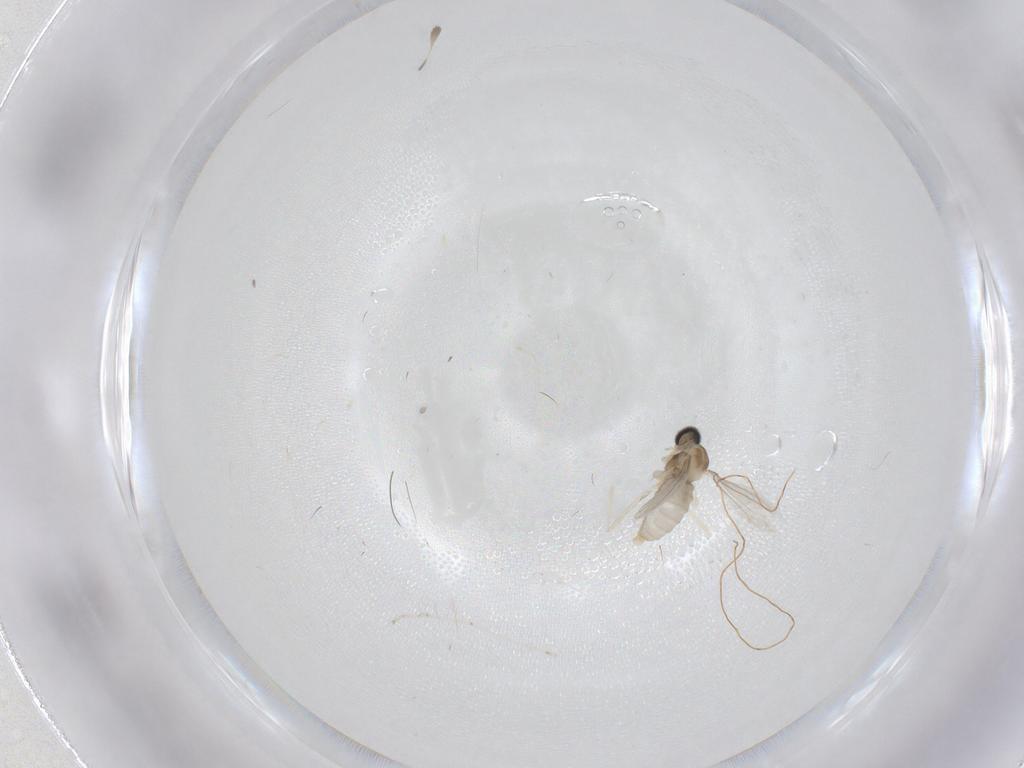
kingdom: Animalia
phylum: Arthropoda
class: Insecta
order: Diptera
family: Cecidomyiidae
